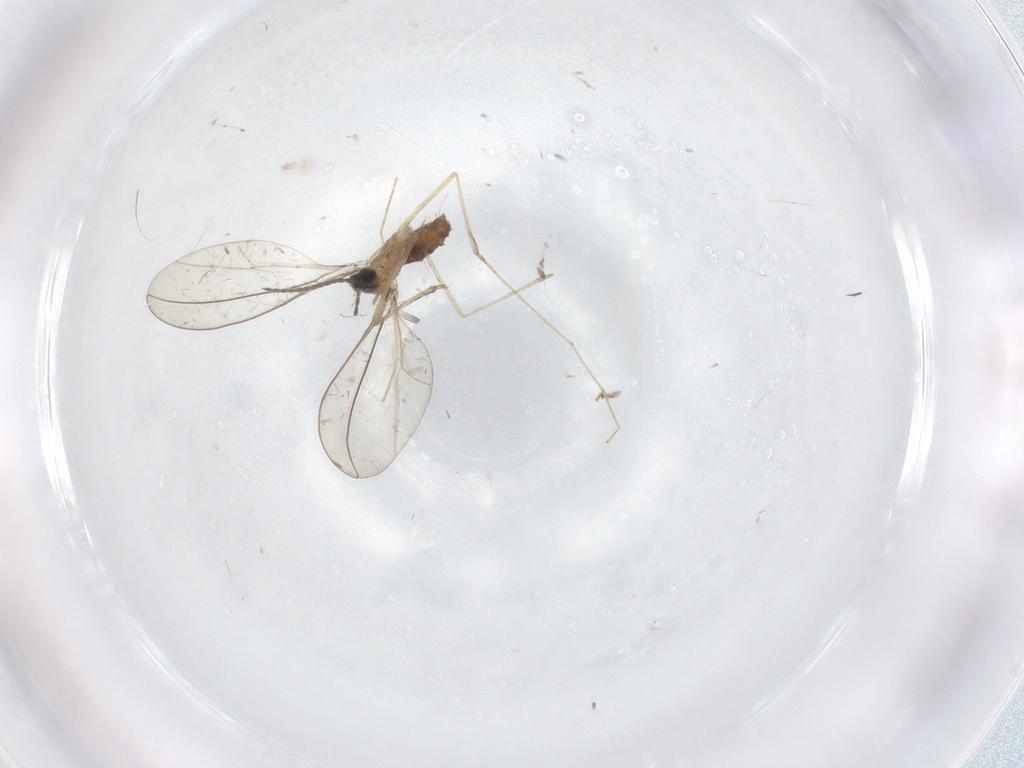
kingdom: Animalia
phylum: Arthropoda
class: Insecta
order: Diptera
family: Cecidomyiidae
